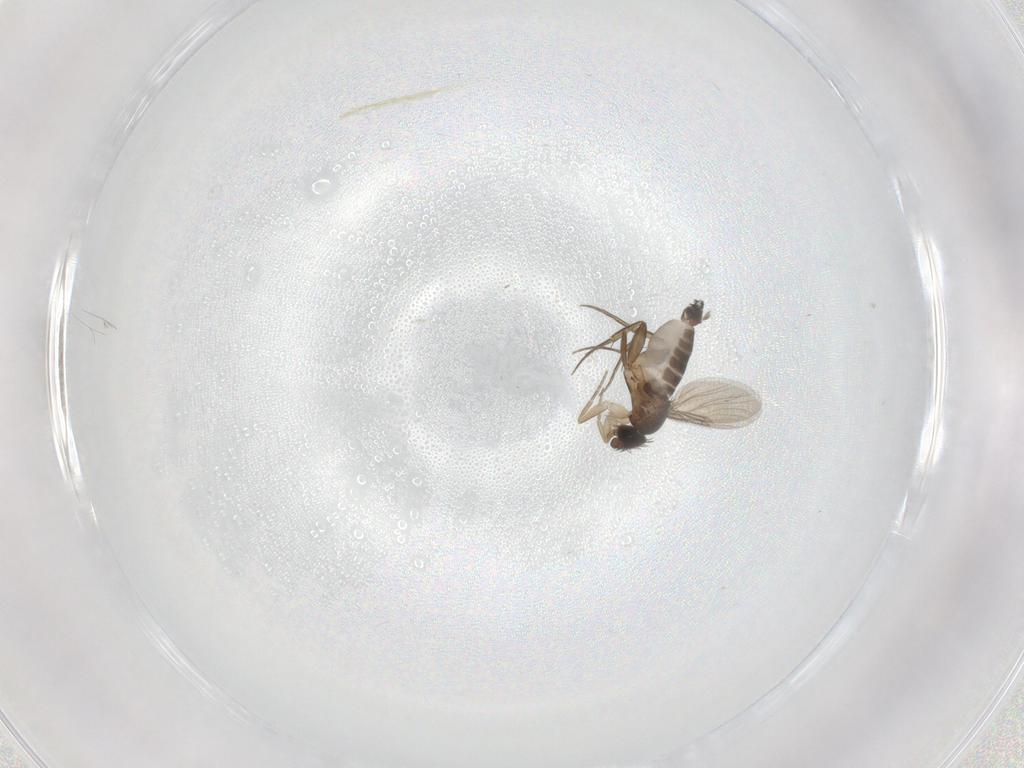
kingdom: Animalia
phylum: Arthropoda
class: Insecta
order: Diptera
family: Phoridae
